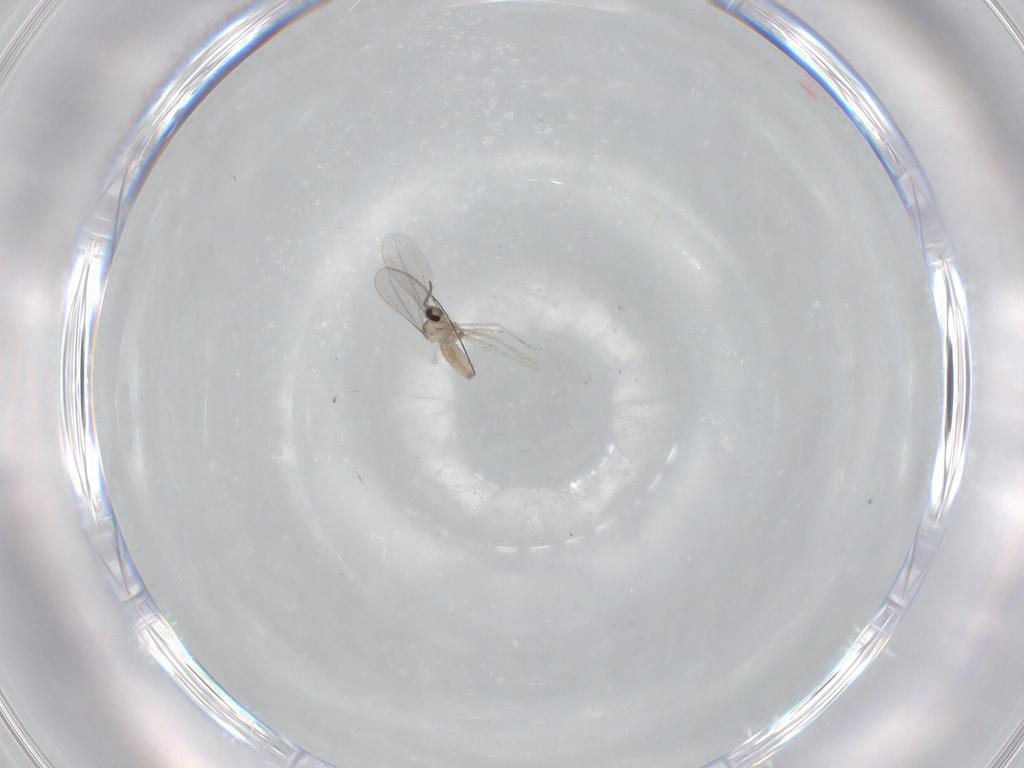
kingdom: Animalia
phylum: Arthropoda
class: Insecta
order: Diptera
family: Cecidomyiidae
